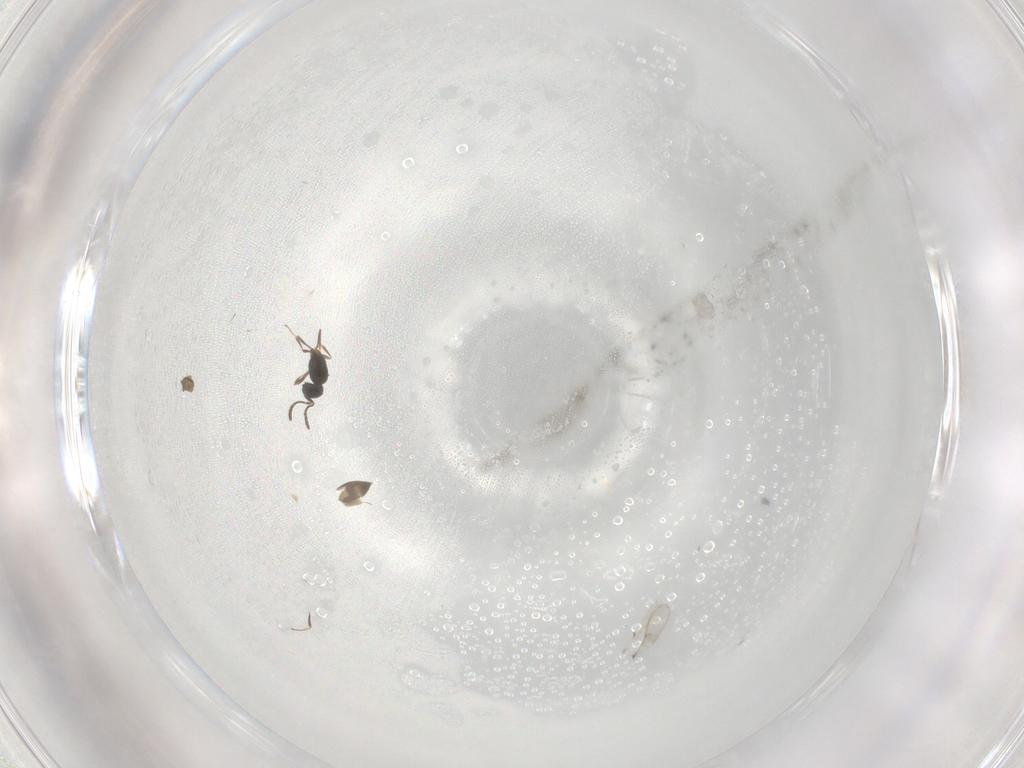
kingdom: Animalia
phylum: Arthropoda
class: Insecta
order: Hymenoptera
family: Scelionidae
